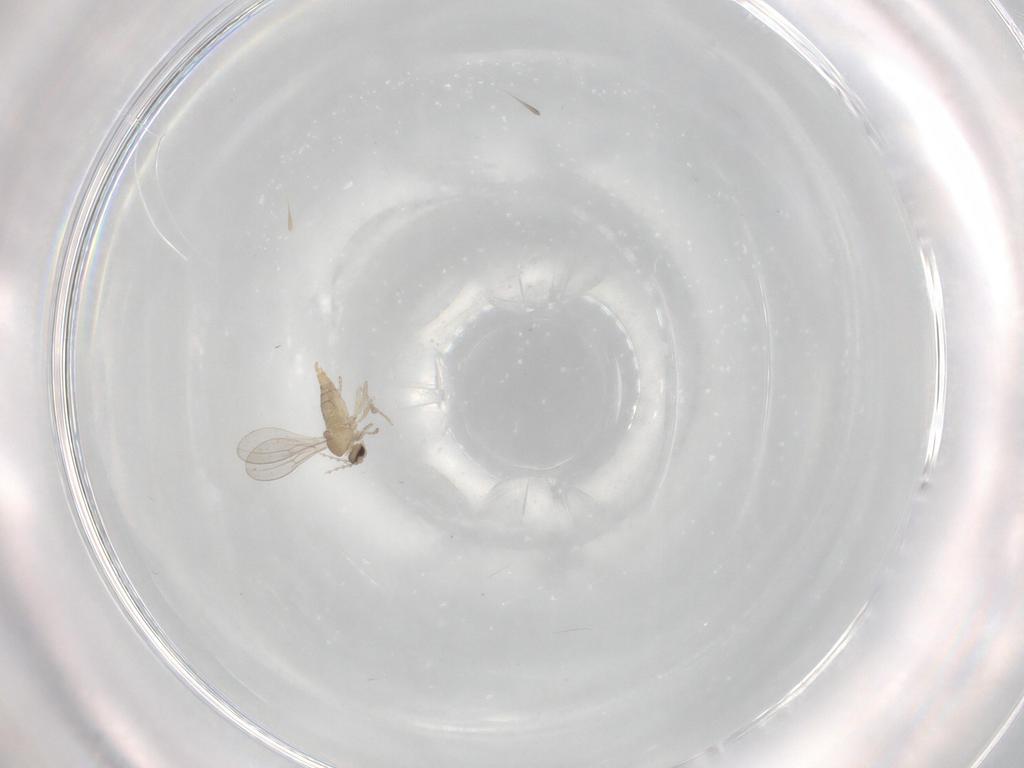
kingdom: Animalia
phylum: Arthropoda
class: Insecta
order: Diptera
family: Cecidomyiidae
